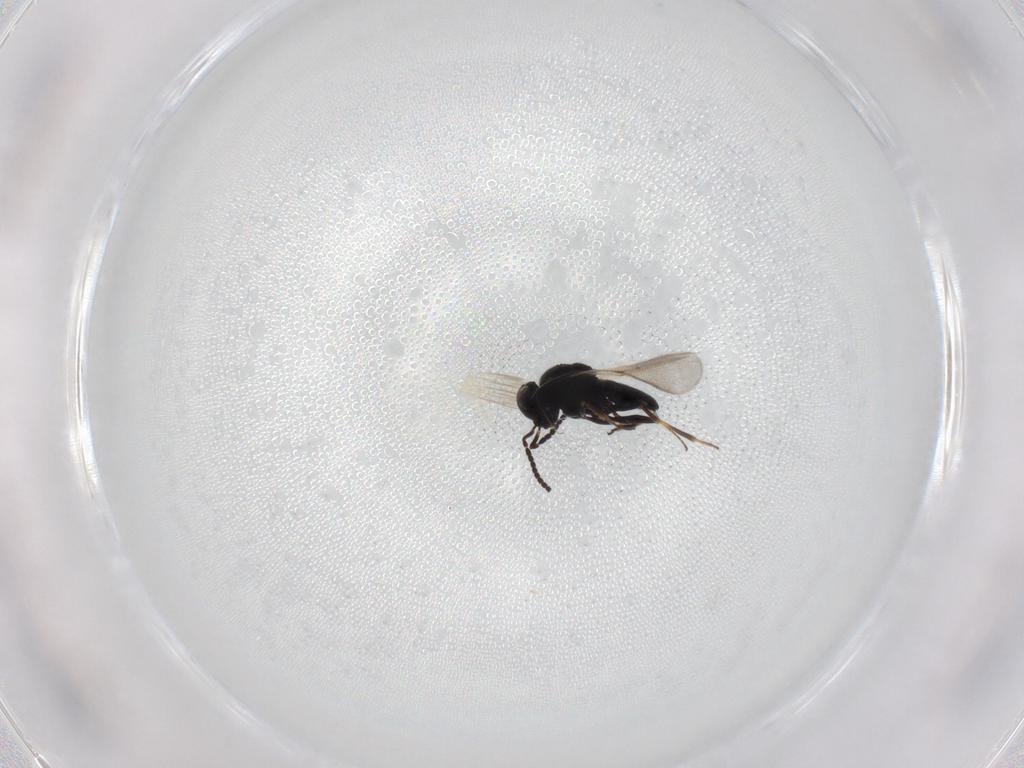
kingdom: Animalia
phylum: Arthropoda
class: Insecta
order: Hymenoptera
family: Scelionidae
